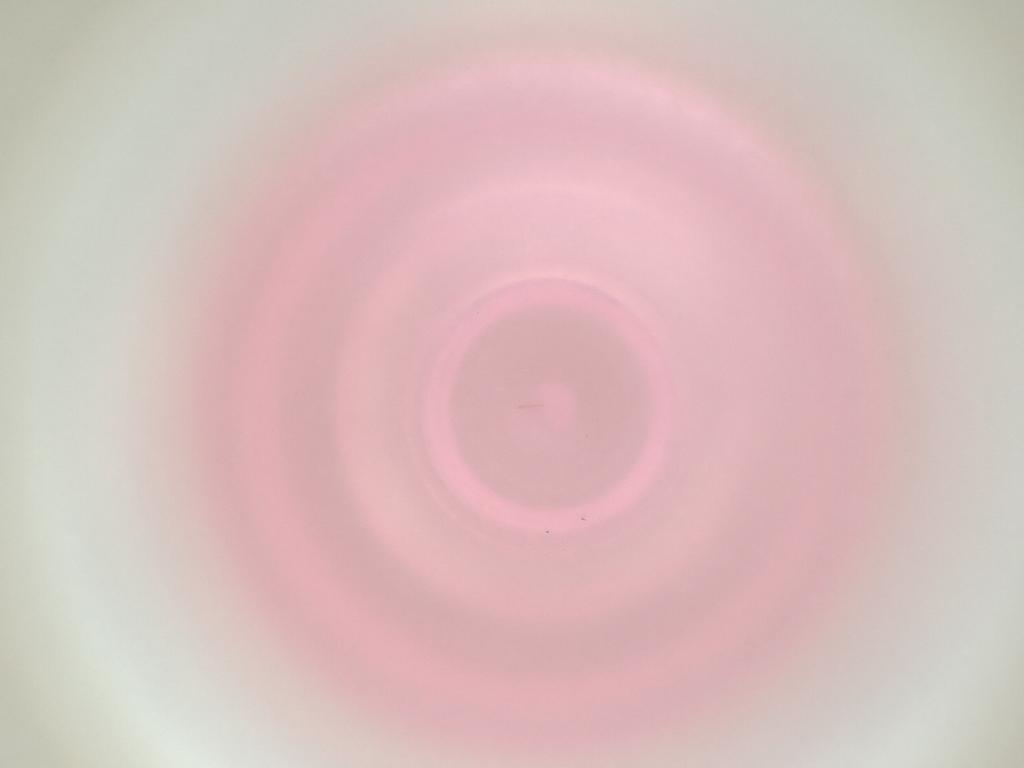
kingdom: Animalia
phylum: Arthropoda
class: Insecta
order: Diptera
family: Cecidomyiidae
